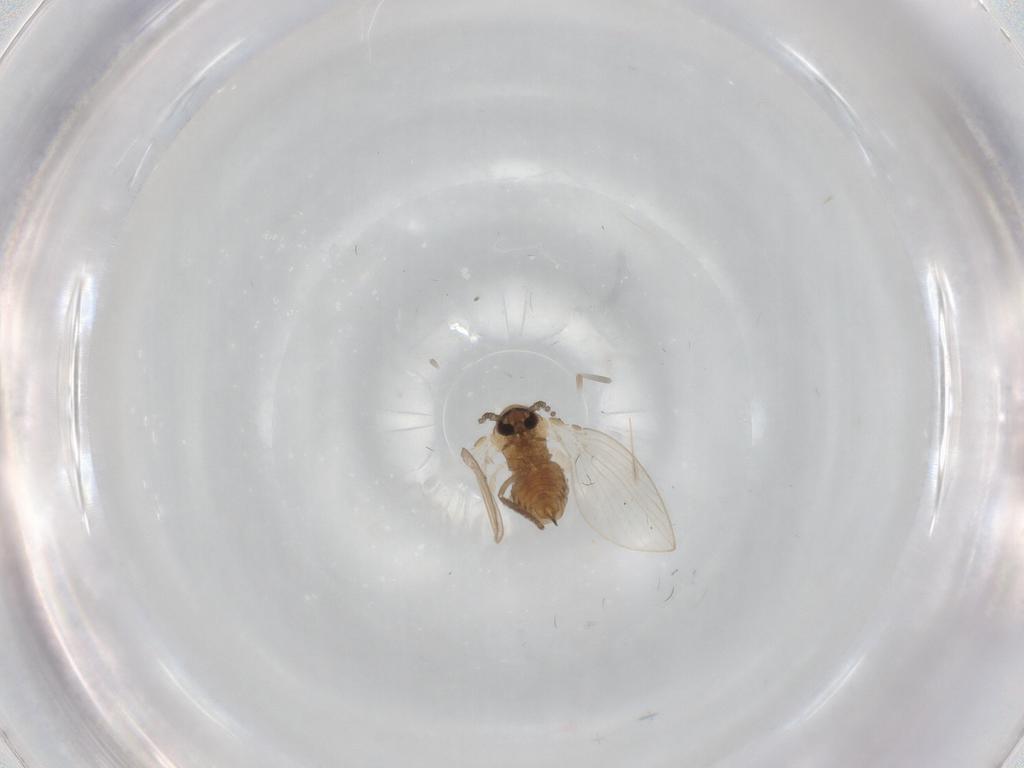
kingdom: Animalia
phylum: Arthropoda
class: Insecta
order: Diptera
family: Psychodidae
